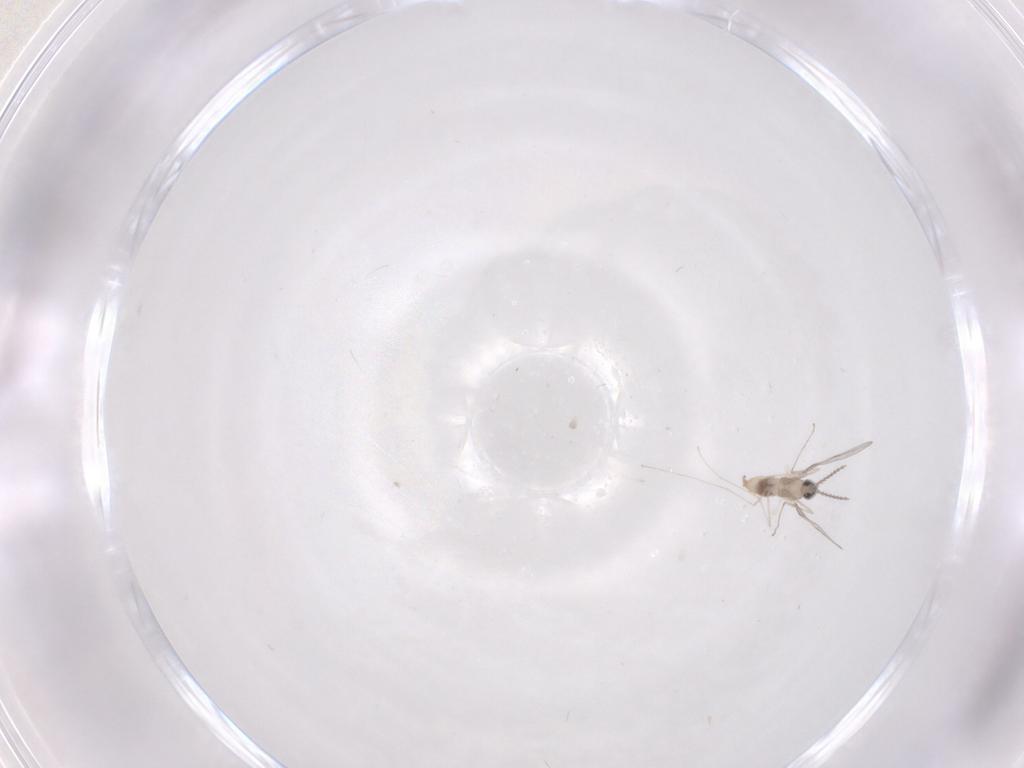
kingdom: Animalia
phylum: Arthropoda
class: Insecta
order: Diptera
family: Cecidomyiidae
